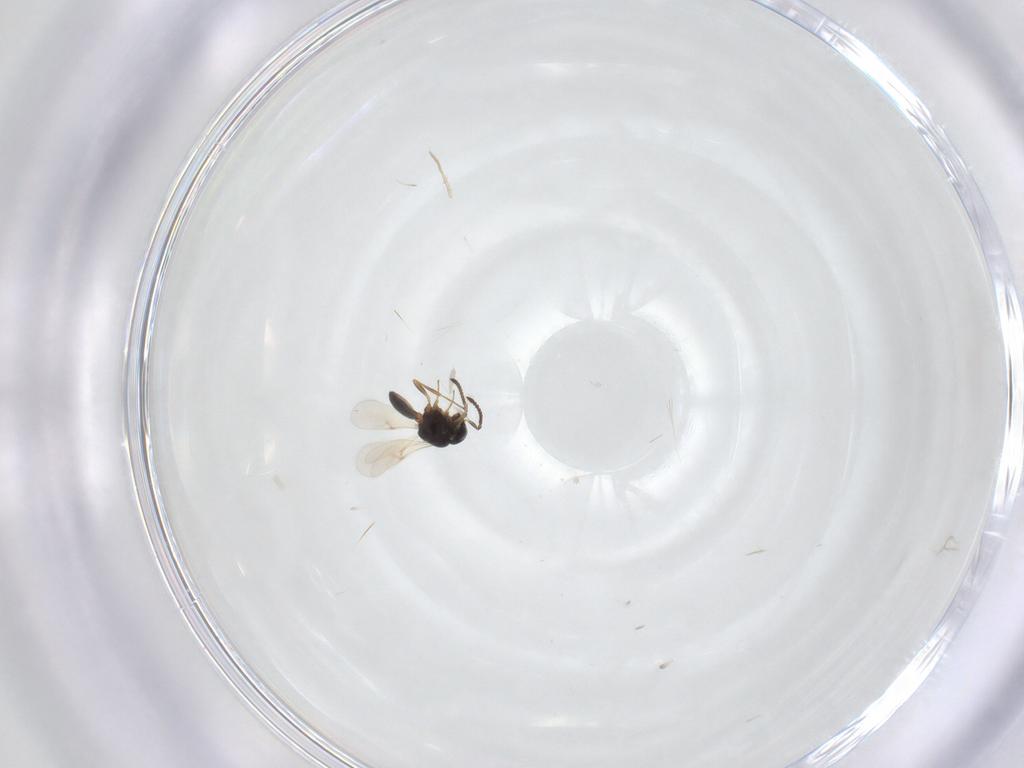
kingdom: Animalia
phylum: Arthropoda
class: Insecta
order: Hymenoptera
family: Scelionidae
